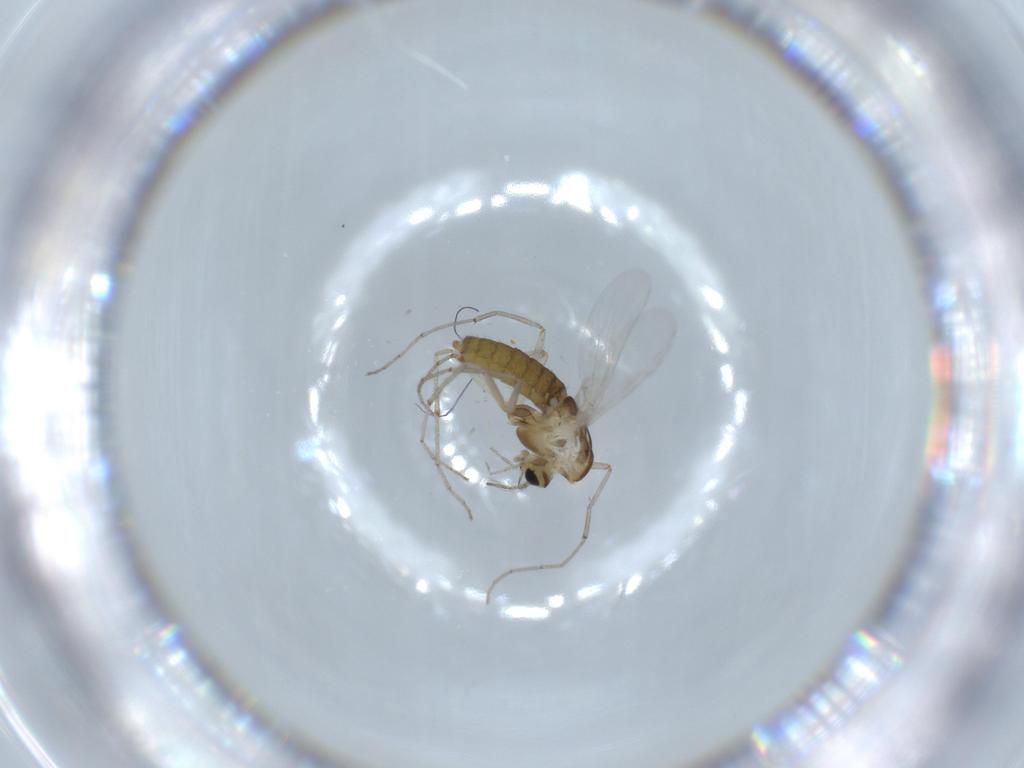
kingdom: Animalia
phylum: Arthropoda
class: Insecta
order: Diptera
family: Chironomidae
